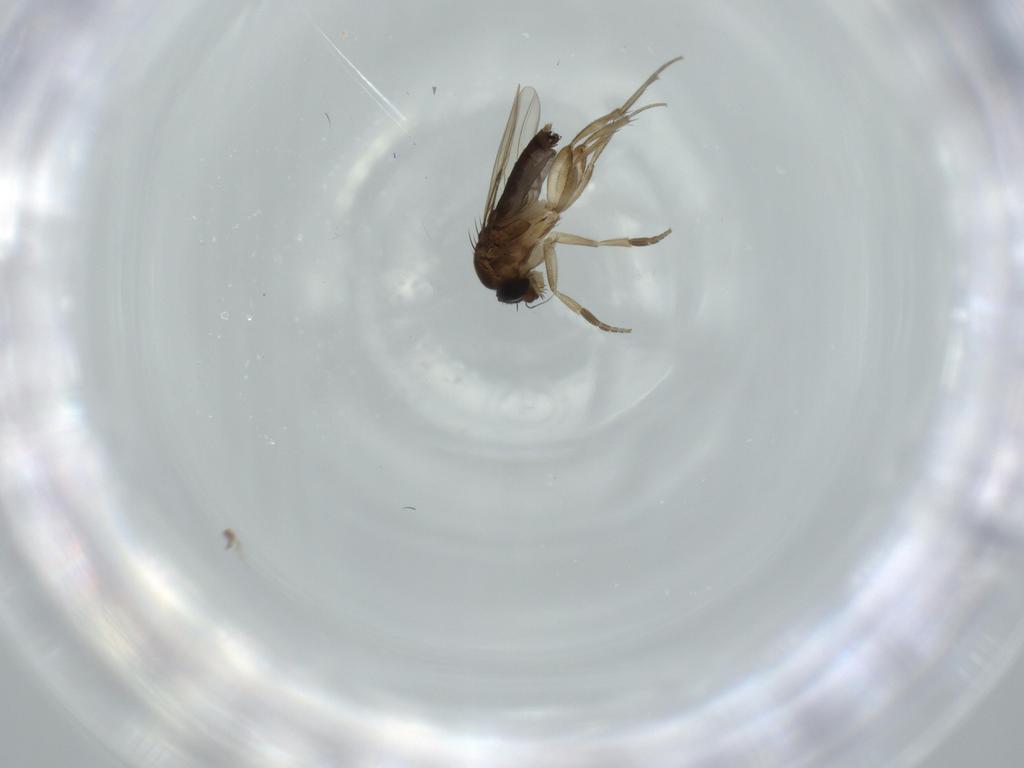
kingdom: Animalia
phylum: Arthropoda
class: Insecta
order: Diptera
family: Phoridae
